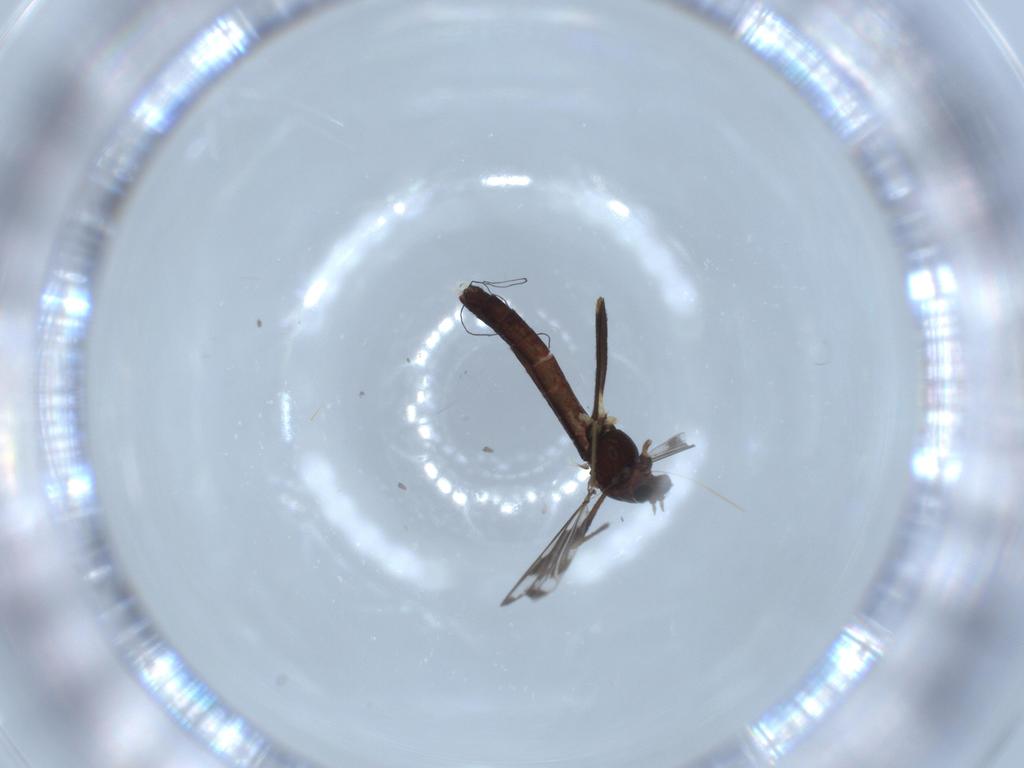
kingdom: Animalia
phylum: Arthropoda
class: Insecta
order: Diptera
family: Chironomidae
